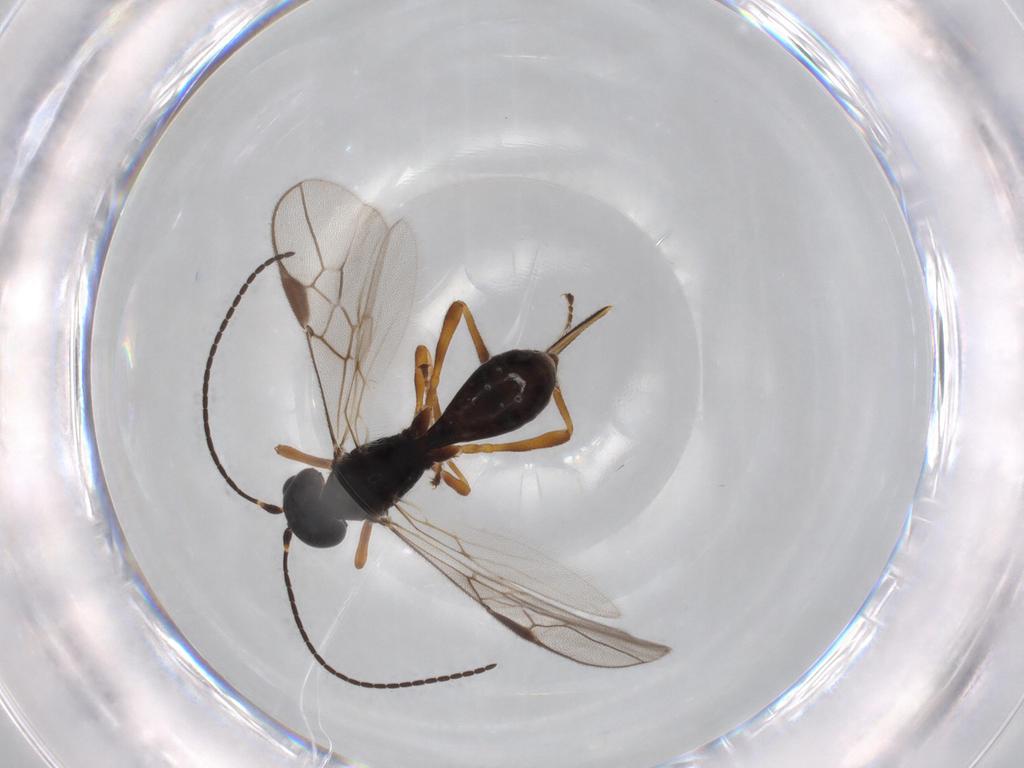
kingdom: Animalia
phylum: Arthropoda
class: Insecta
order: Hymenoptera
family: Braconidae
